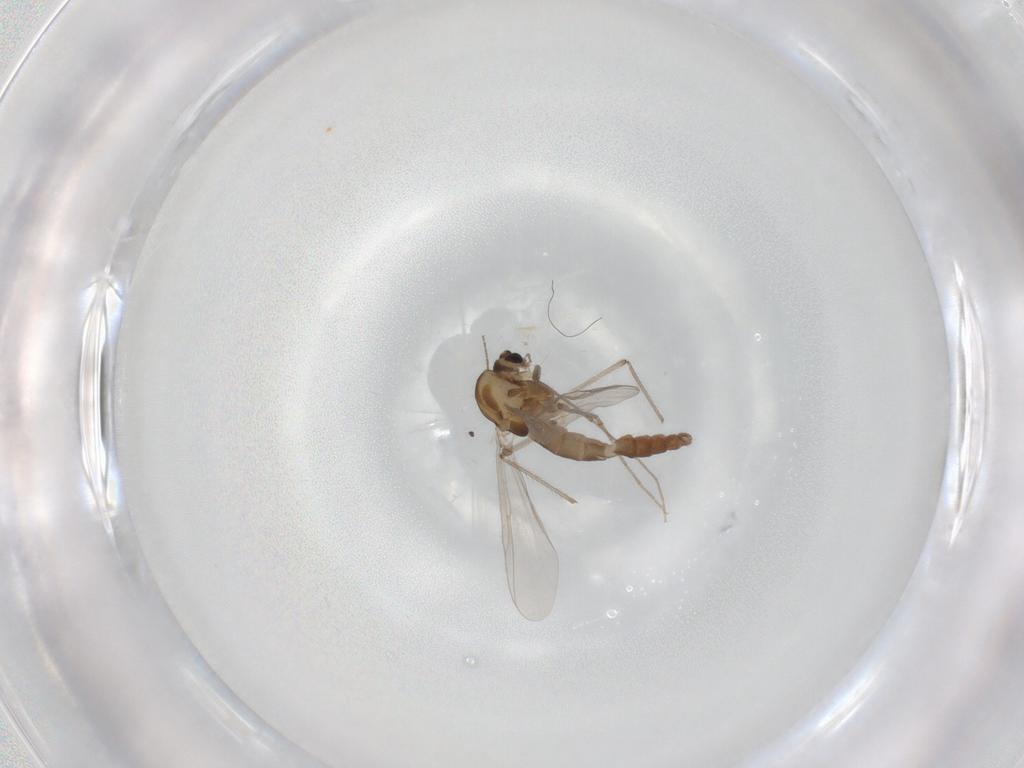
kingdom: Animalia
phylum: Arthropoda
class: Insecta
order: Diptera
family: Chironomidae
